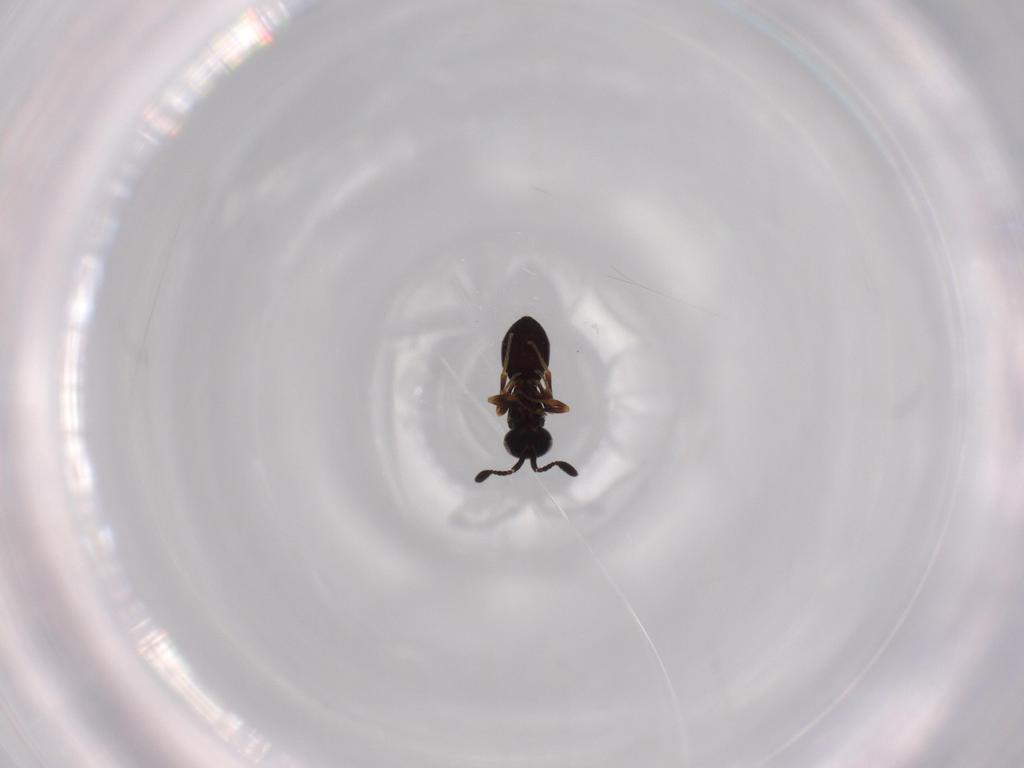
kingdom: Animalia
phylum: Arthropoda
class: Insecta
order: Hymenoptera
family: Scelionidae
